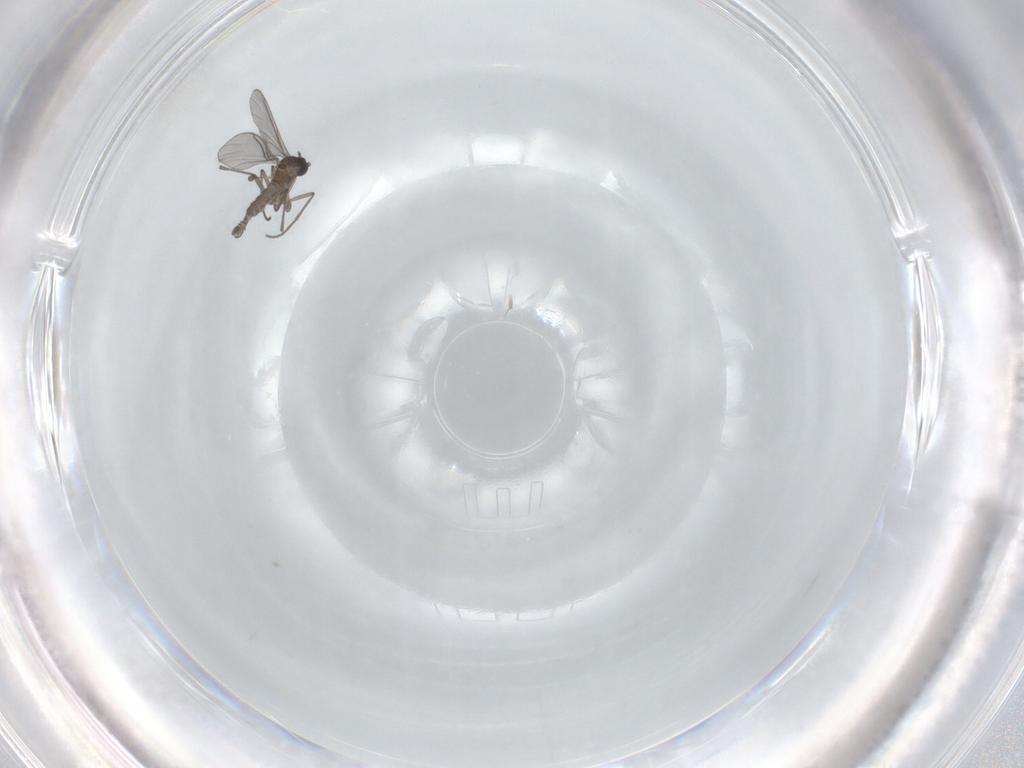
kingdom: Animalia
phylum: Arthropoda
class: Insecta
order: Diptera
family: Sciaridae
